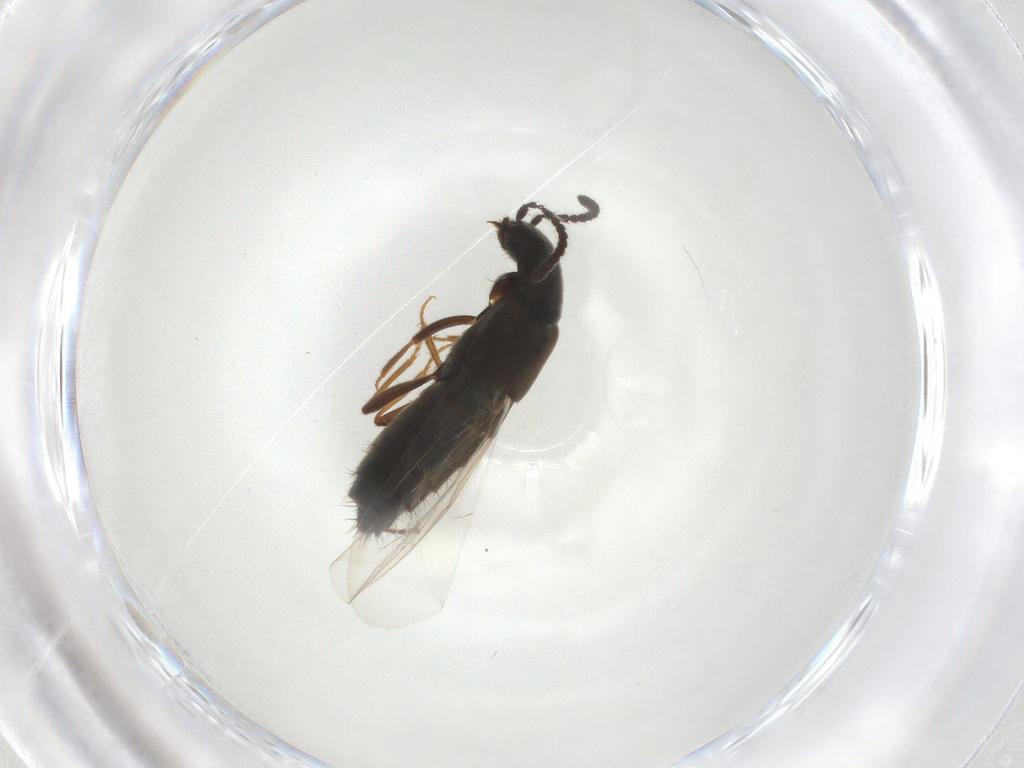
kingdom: Animalia
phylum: Arthropoda
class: Insecta
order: Coleoptera
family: Staphylinidae
